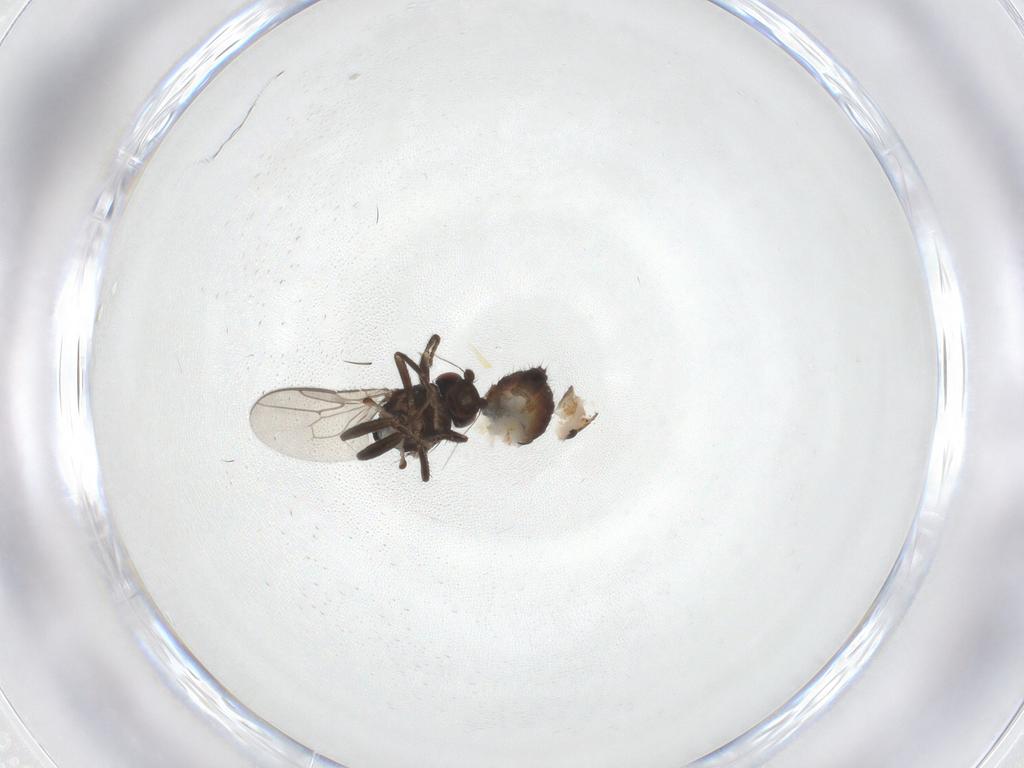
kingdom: Animalia
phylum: Arthropoda
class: Insecta
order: Diptera
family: Sphaeroceridae
